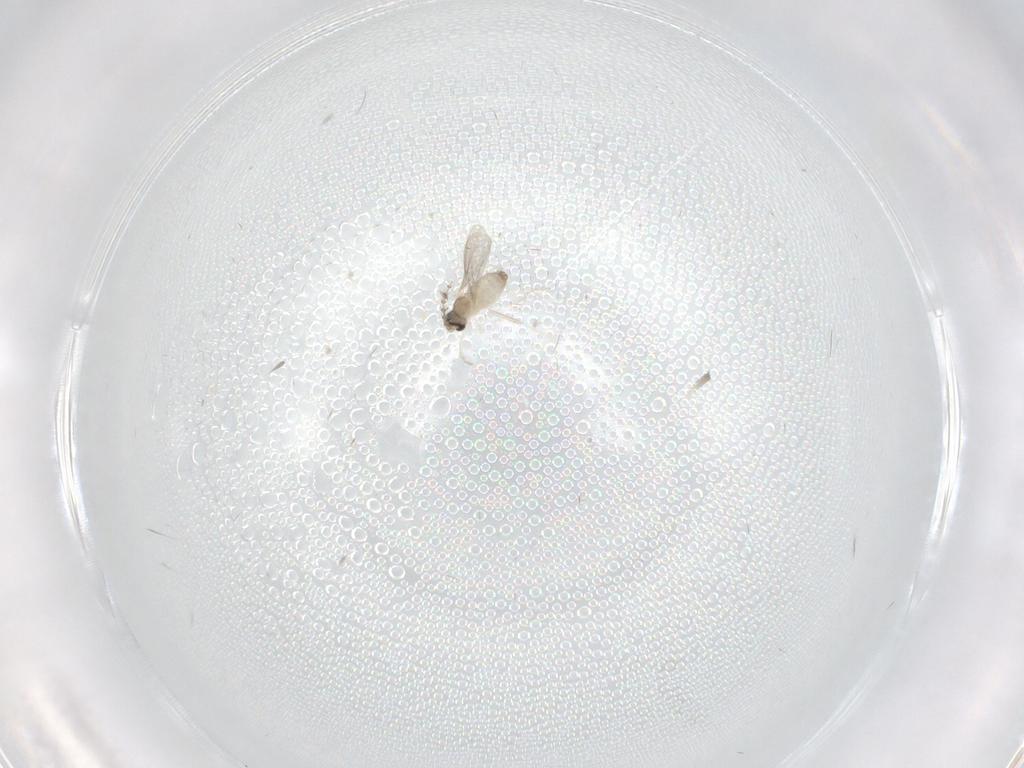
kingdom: Animalia
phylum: Arthropoda
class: Insecta
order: Diptera
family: Phoridae
